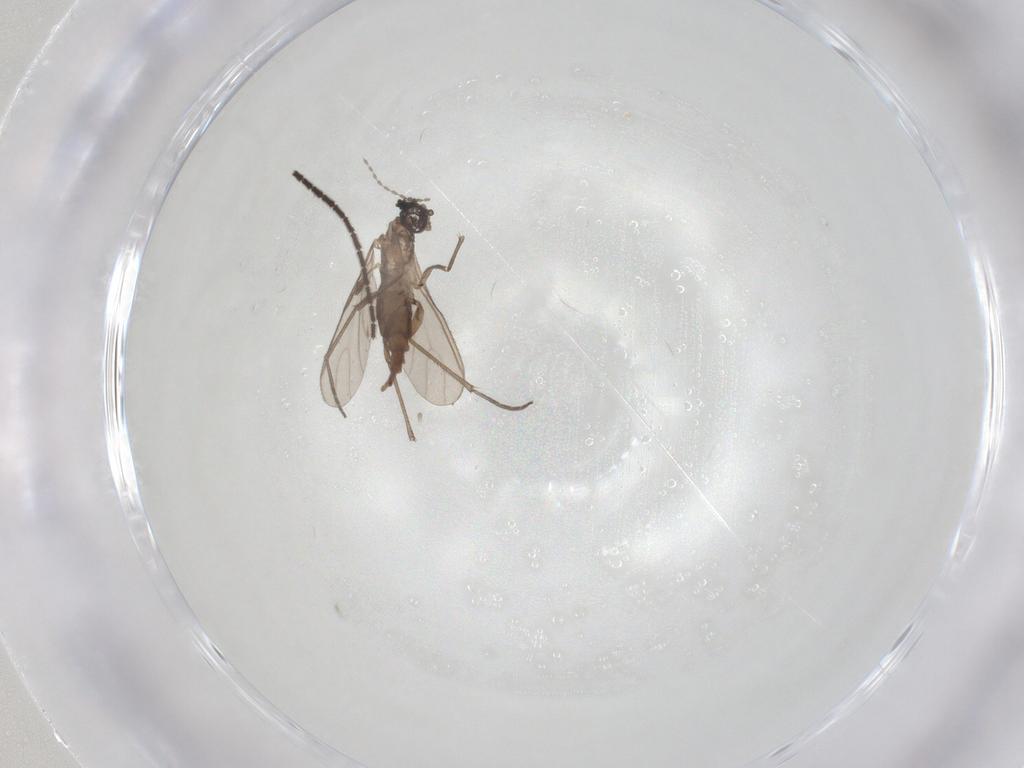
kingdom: Animalia
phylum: Arthropoda
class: Insecta
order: Diptera
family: Sciaridae
